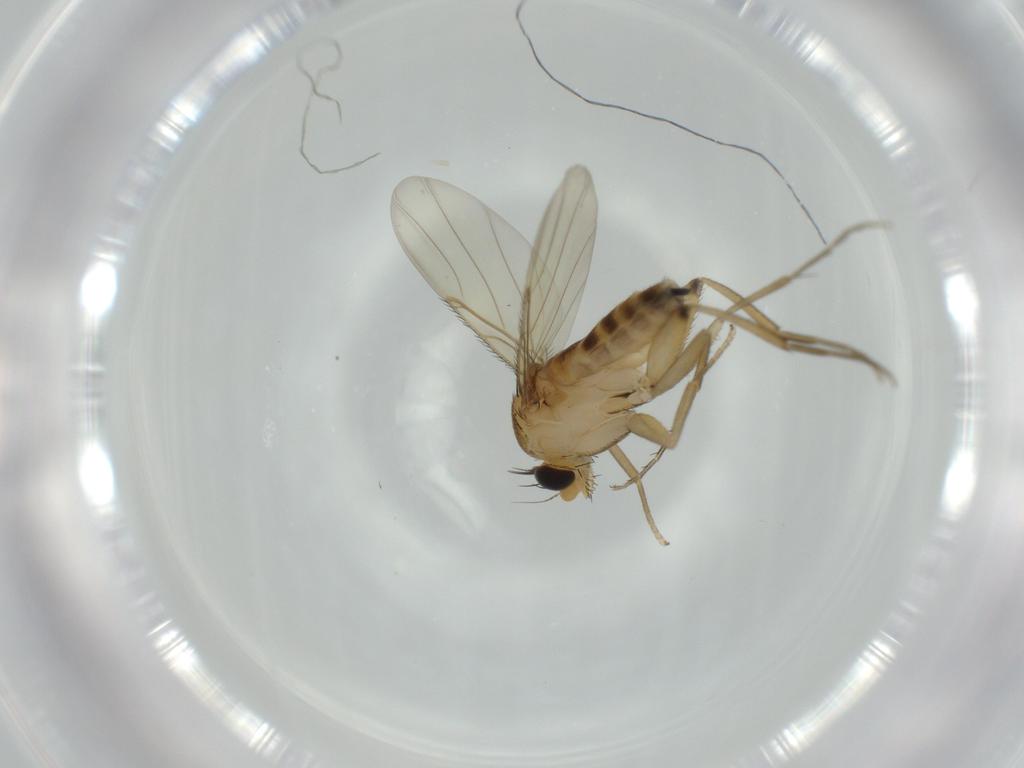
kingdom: Animalia
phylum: Arthropoda
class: Insecta
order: Diptera
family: Phoridae
